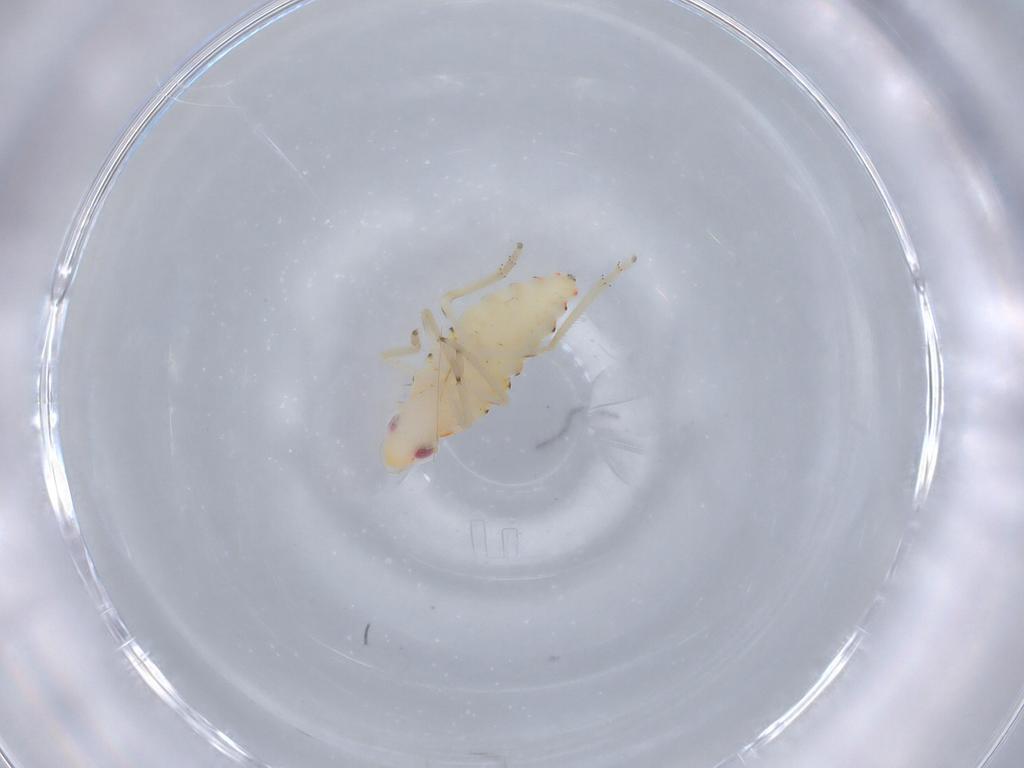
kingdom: Animalia
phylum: Arthropoda
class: Insecta
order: Hemiptera
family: Tropiduchidae
